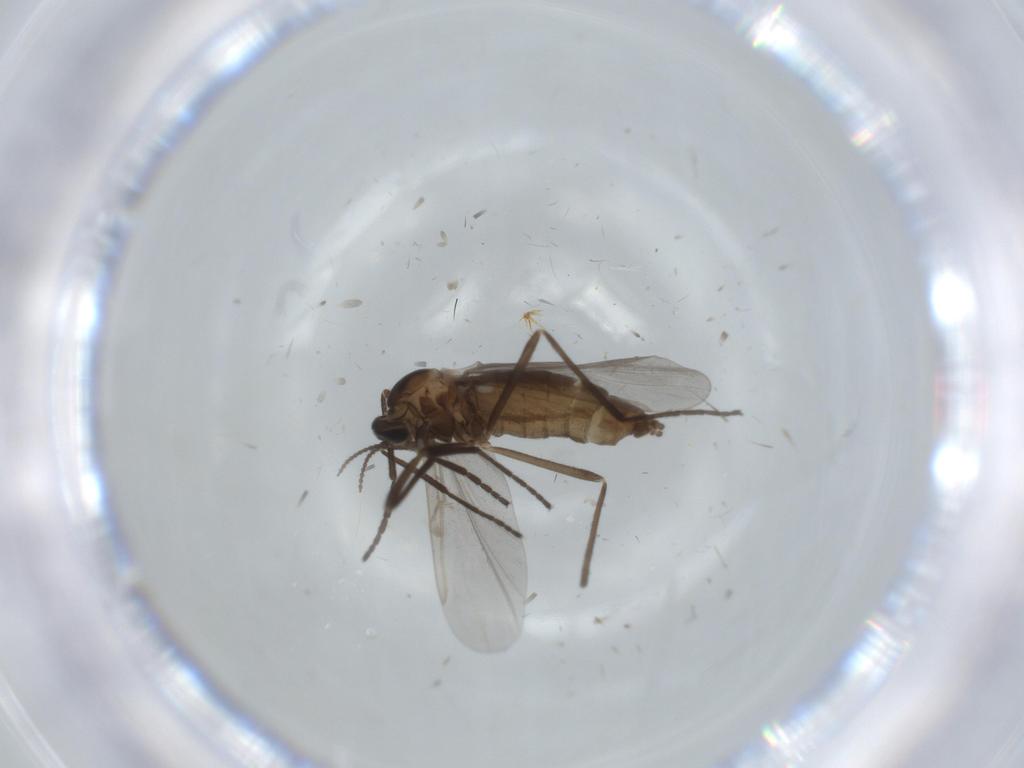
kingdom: Animalia
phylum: Arthropoda
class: Insecta
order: Diptera
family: Cecidomyiidae
